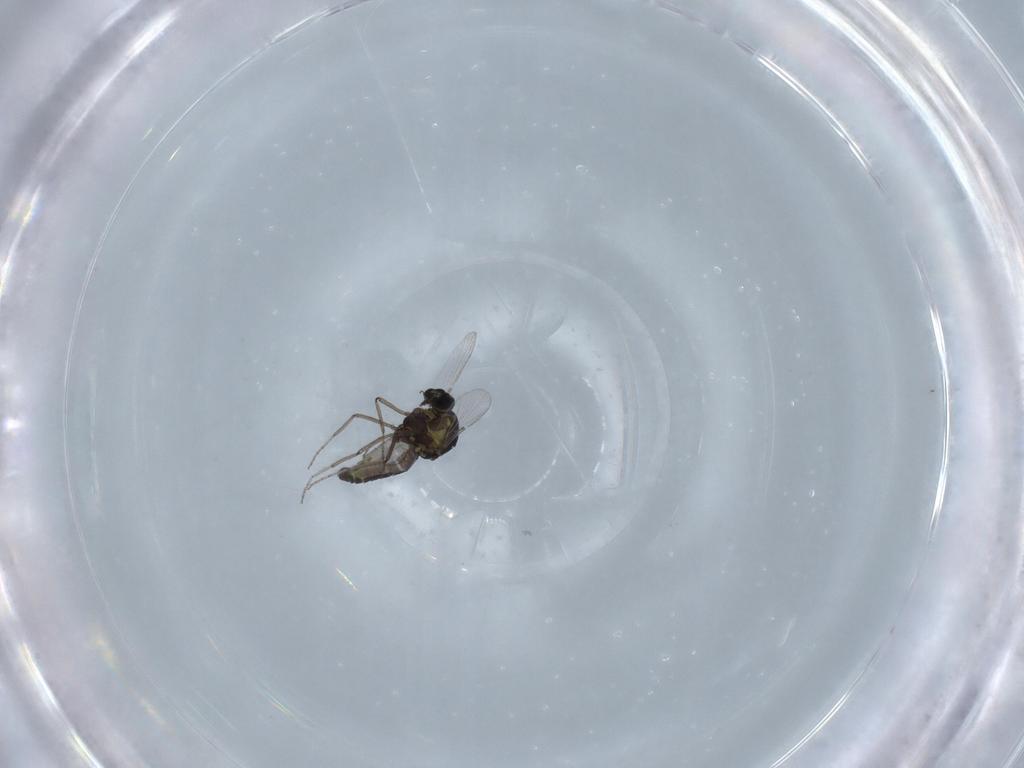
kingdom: Animalia
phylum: Arthropoda
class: Insecta
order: Diptera
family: Ceratopogonidae
